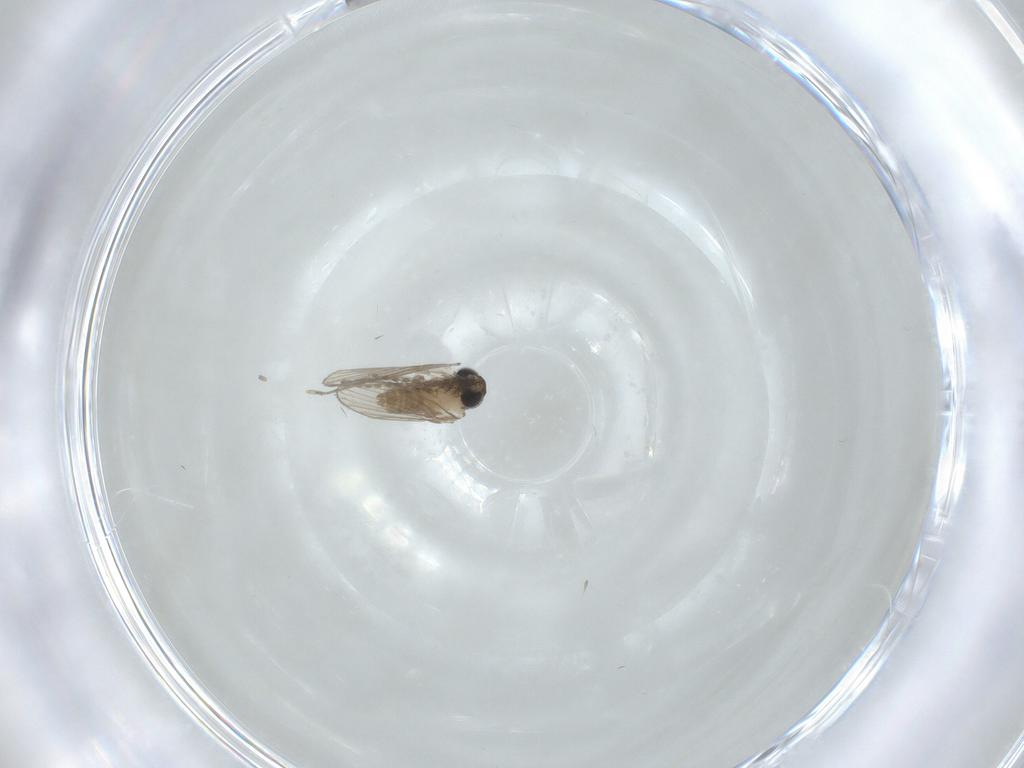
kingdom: Animalia
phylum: Arthropoda
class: Insecta
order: Diptera
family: Psychodidae
